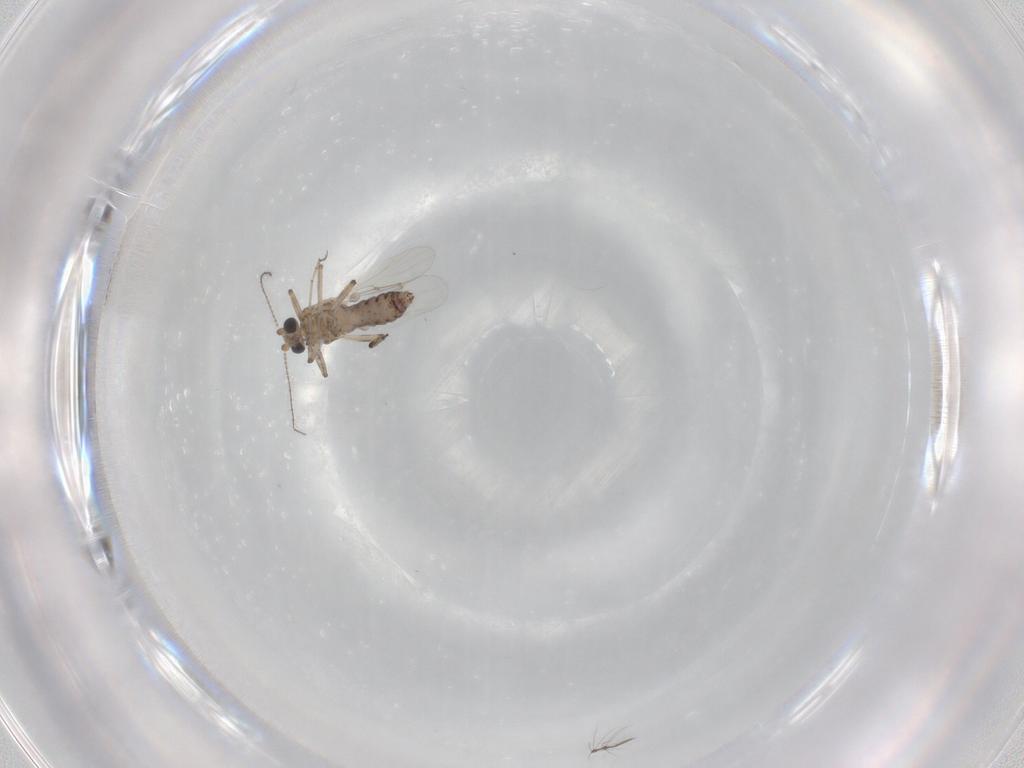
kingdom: Animalia
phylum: Arthropoda
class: Insecta
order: Diptera
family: Ceratopogonidae
